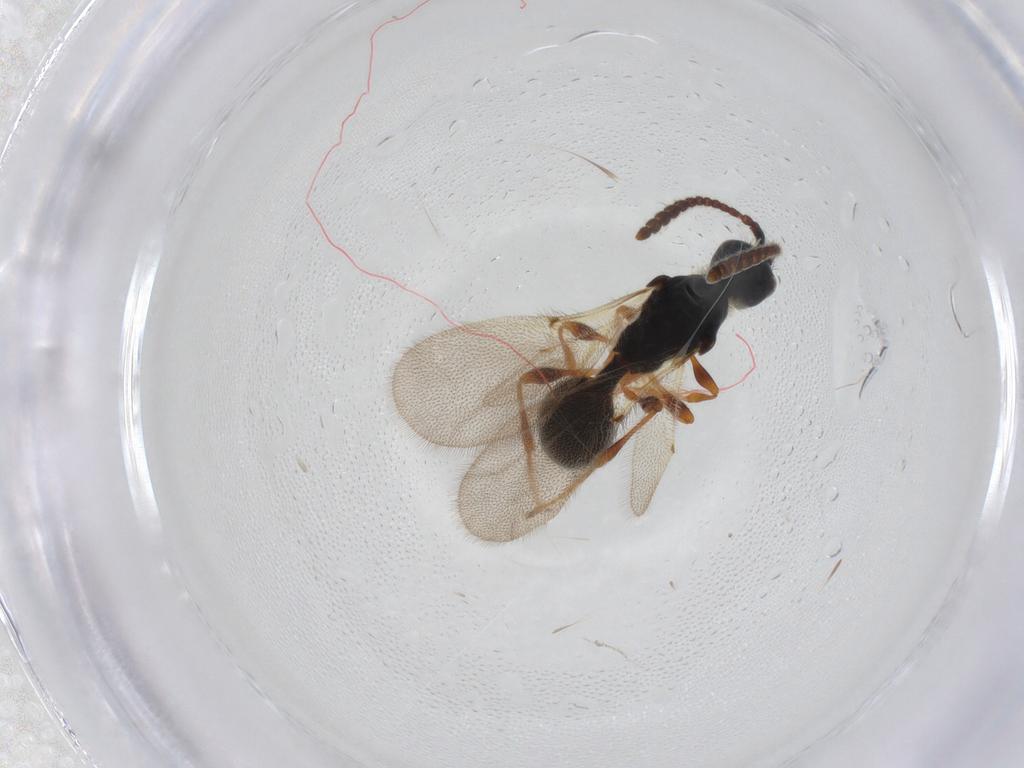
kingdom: Animalia
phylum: Arthropoda
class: Insecta
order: Hymenoptera
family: Diapriidae
